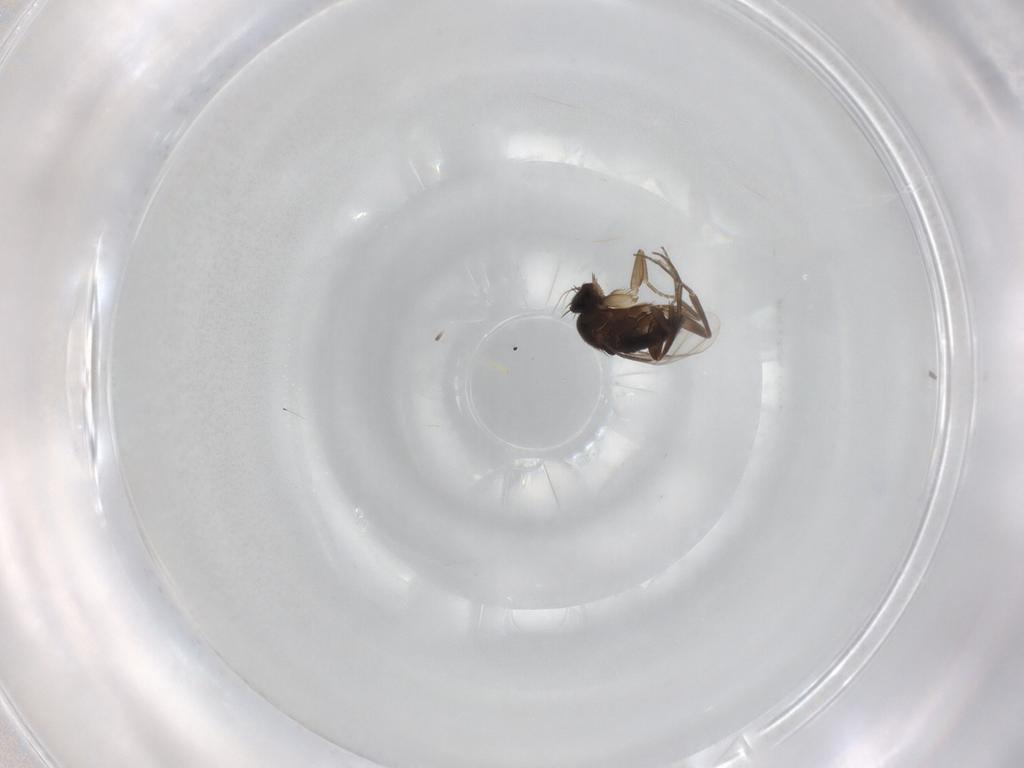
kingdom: Animalia
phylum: Arthropoda
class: Insecta
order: Diptera
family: Phoridae
